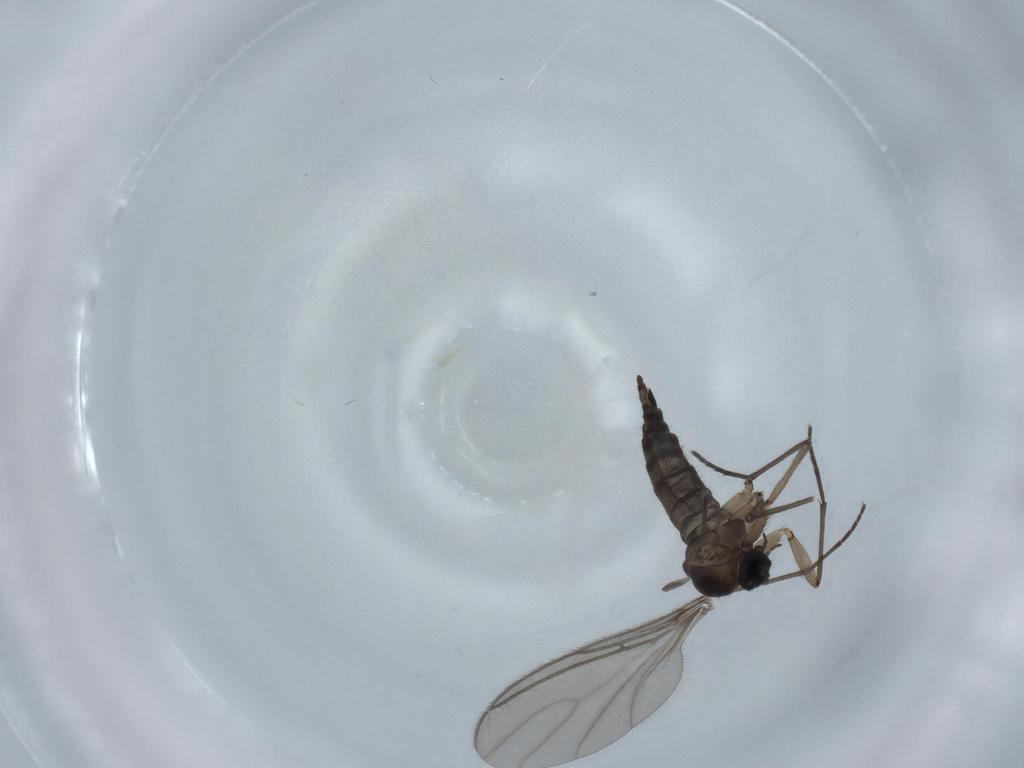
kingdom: Animalia
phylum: Arthropoda
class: Insecta
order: Diptera
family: Sciaridae
